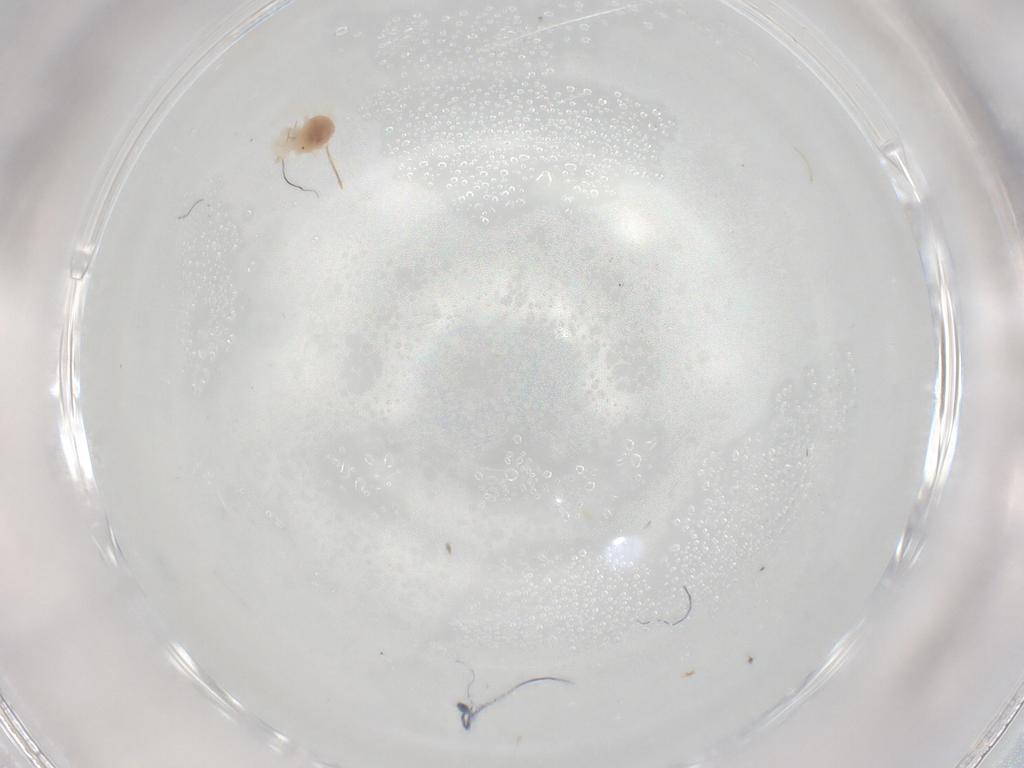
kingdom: Animalia
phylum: Arthropoda
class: Arachnida
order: Trombidiformes
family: Anystidae
